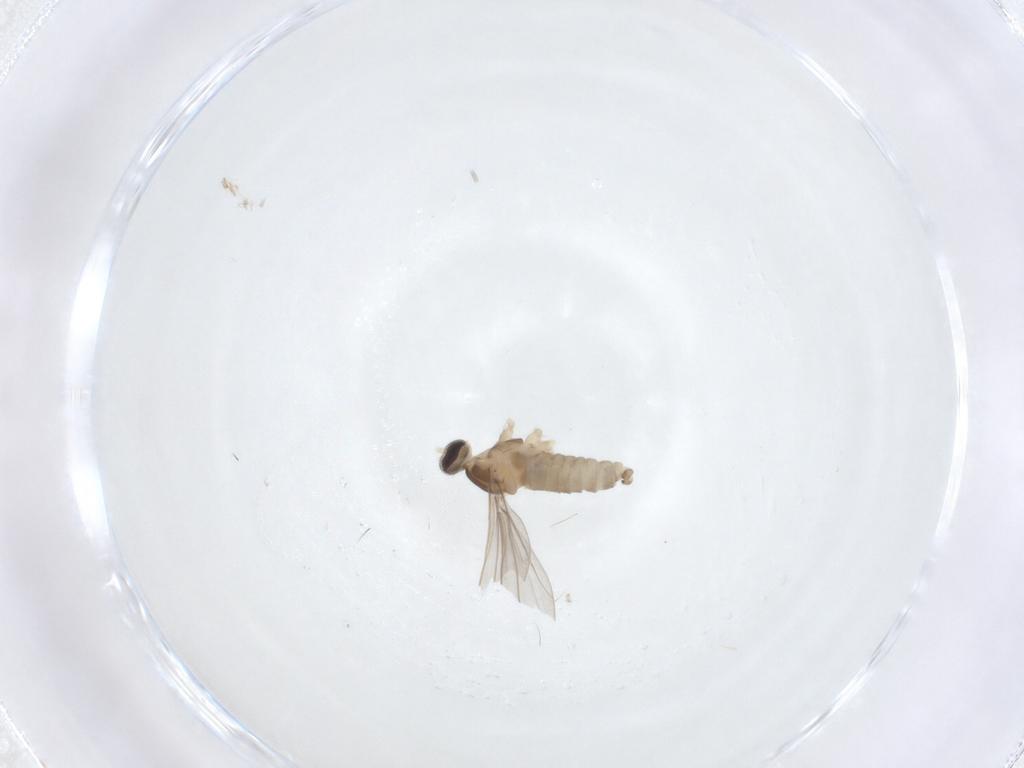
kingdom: Animalia
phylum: Arthropoda
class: Insecta
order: Diptera
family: Cecidomyiidae
